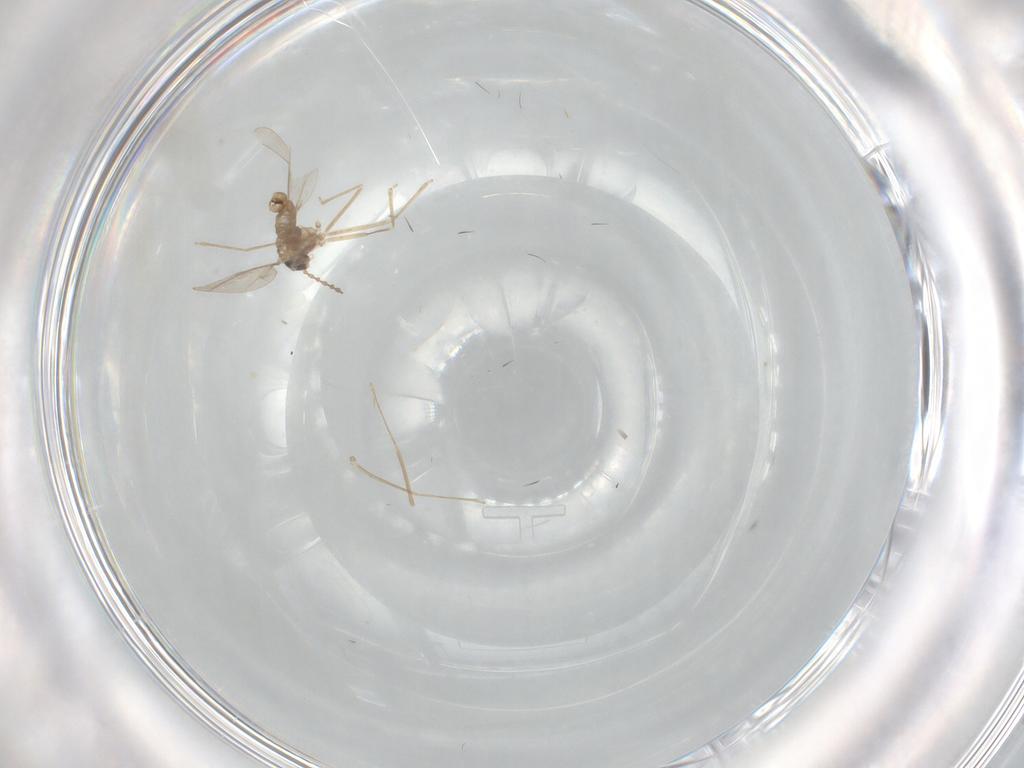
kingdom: Animalia
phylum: Arthropoda
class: Insecta
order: Diptera
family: Cecidomyiidae
